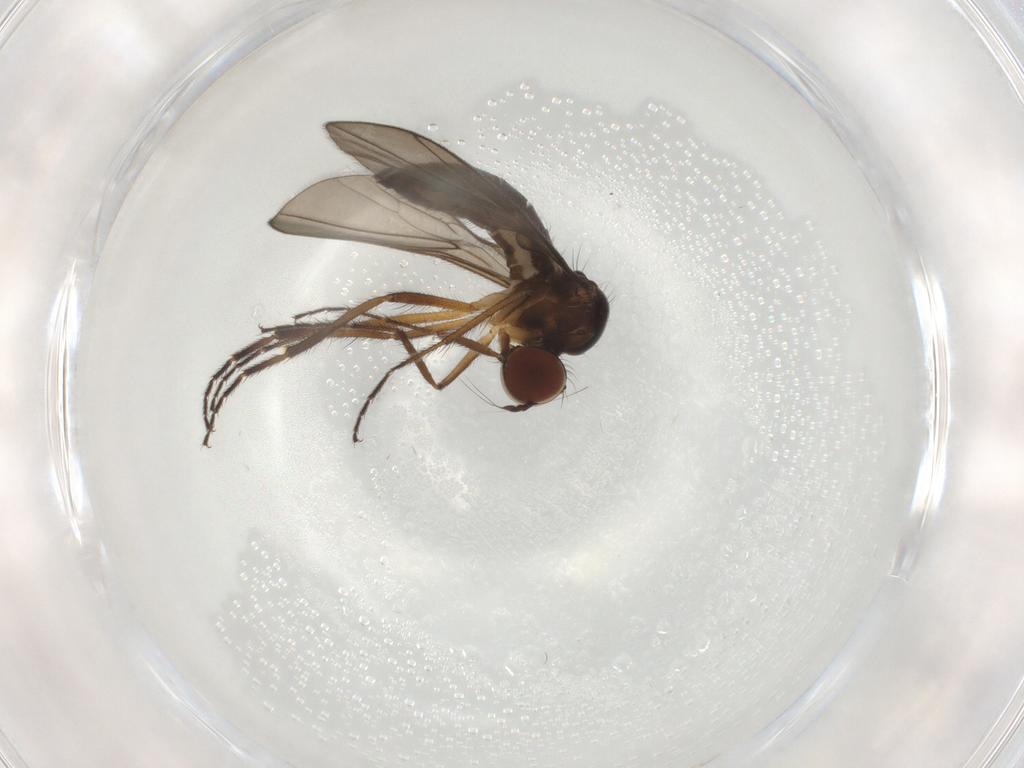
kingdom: Animalia
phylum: Arthropoda
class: Insecta
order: Diptera
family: Hybotidae
